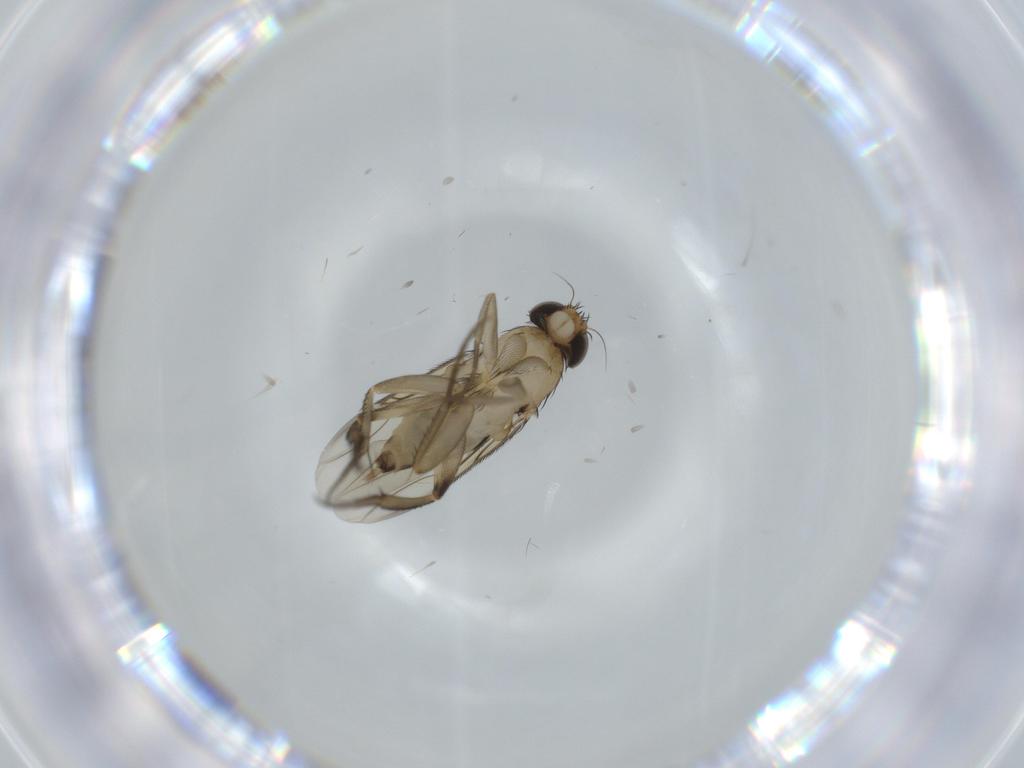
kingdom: Animalia
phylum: Arthropoda
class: Insecta
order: Diptera
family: Phoridae
